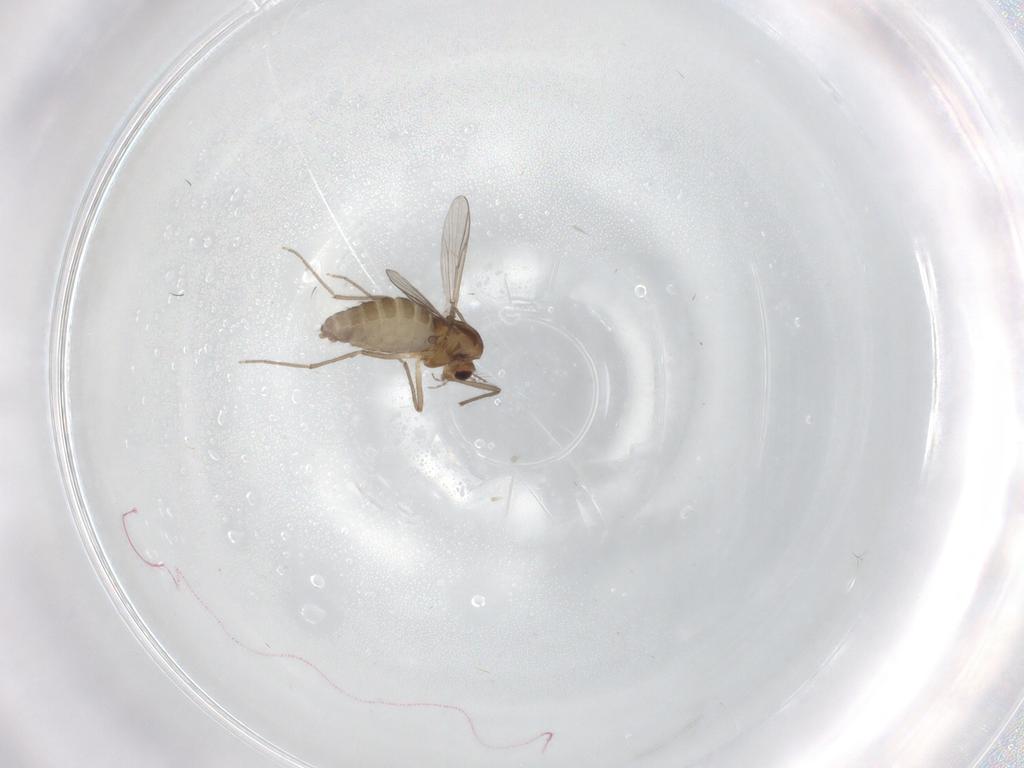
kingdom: Animalia
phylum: Arthropoda
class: Insecta
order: Diptera
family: Chironomidae
